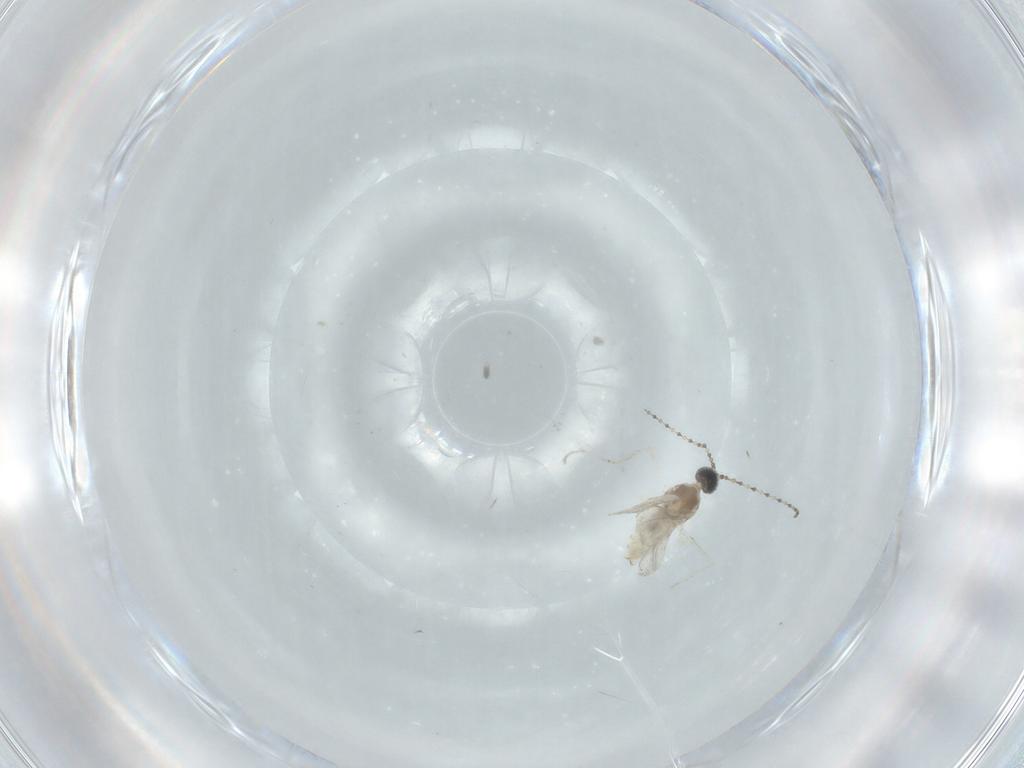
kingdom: Animalia
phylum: Arthropoda
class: Insecta
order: Diptera
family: Cecidomyiidae
